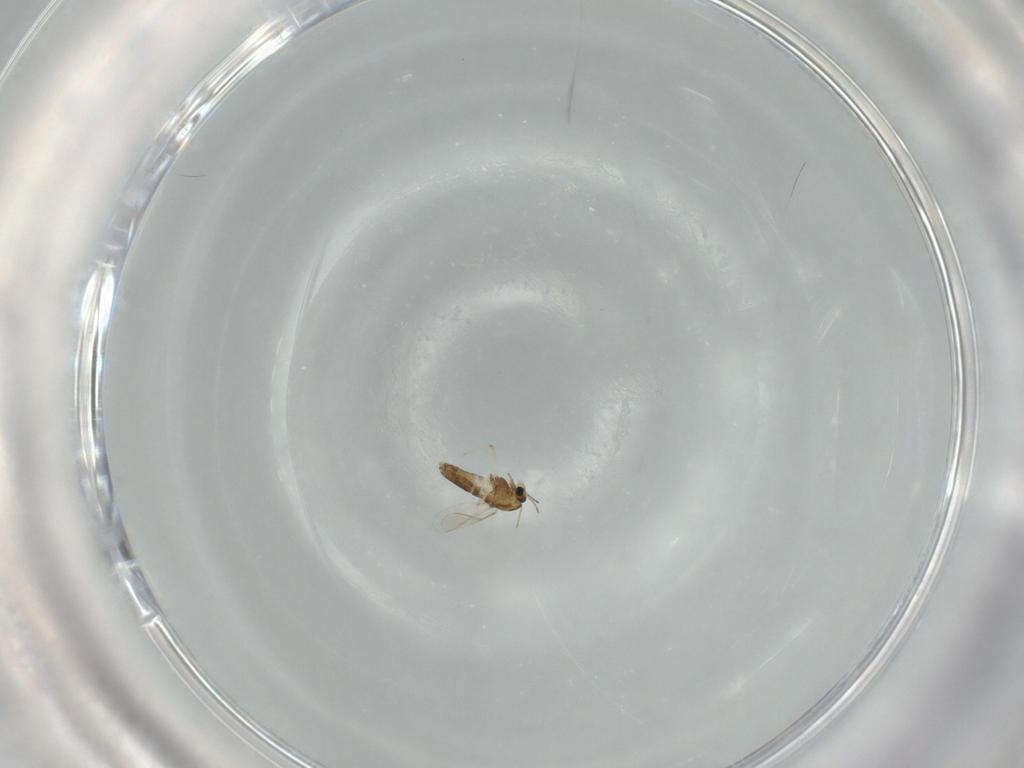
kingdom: Animalia
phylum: Arthropoda
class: Insecta
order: Diptera
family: Chironomidae
